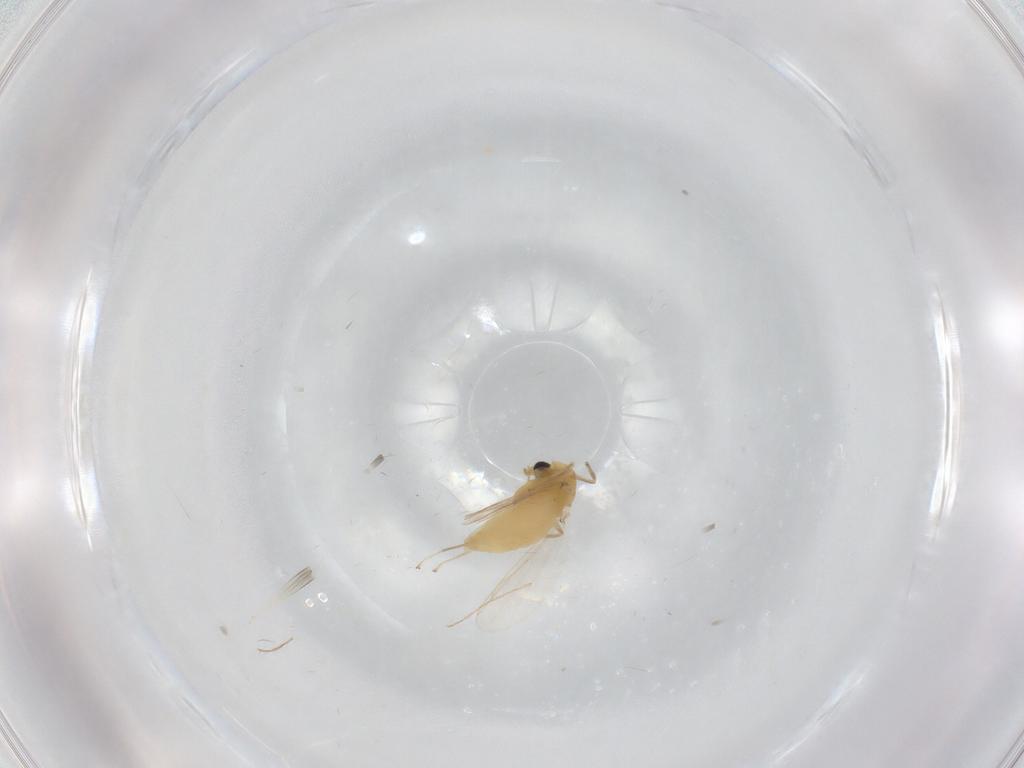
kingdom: Animalia
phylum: Arthropoda
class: Insecta
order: Diptera
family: Chironomidae
